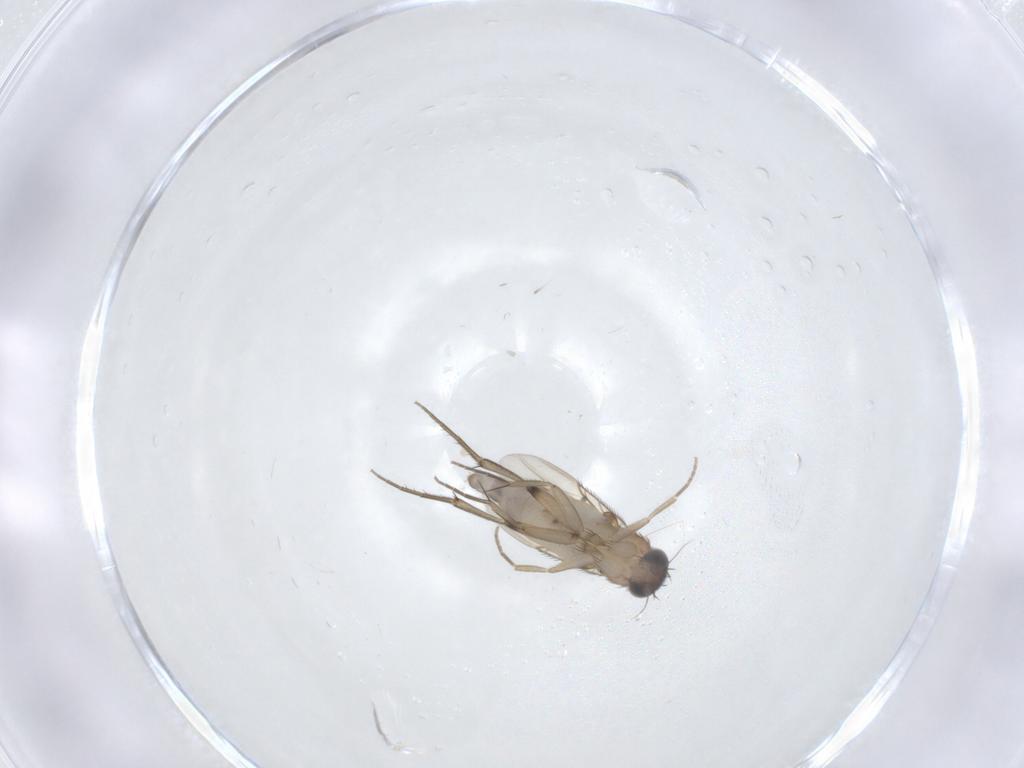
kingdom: Animalia
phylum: Arthropoda
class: Insecta
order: Diptera
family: Phoridae
